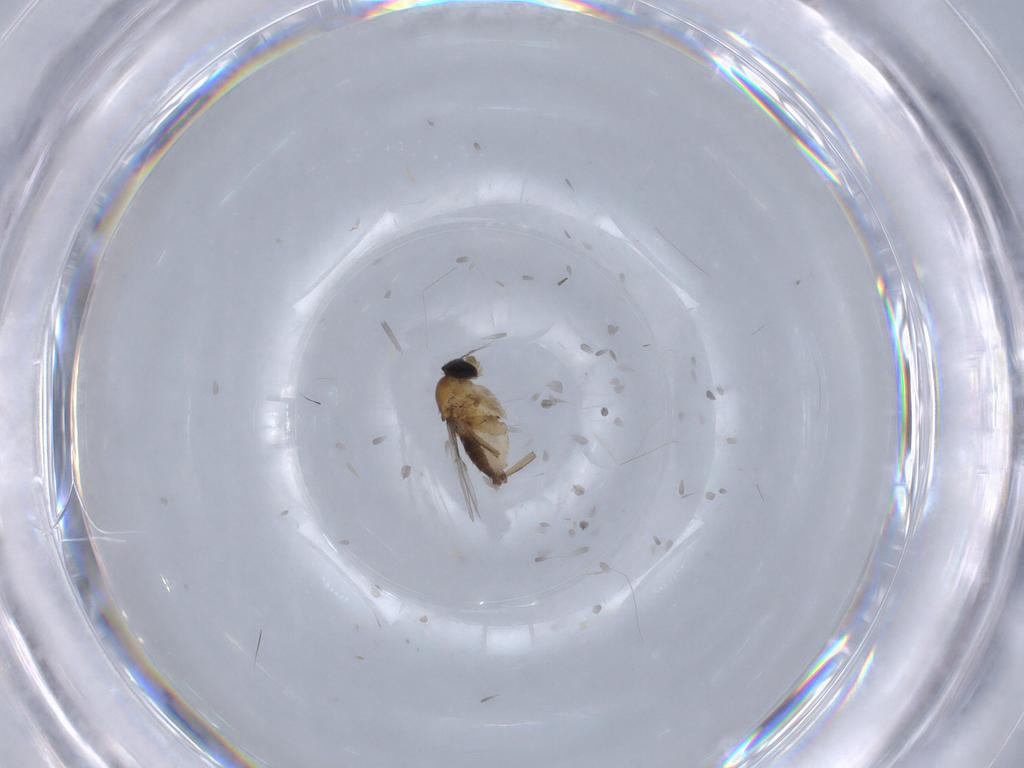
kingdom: Animalia
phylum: Arthropoda
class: Insecta
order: Diptera
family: Phoridae
